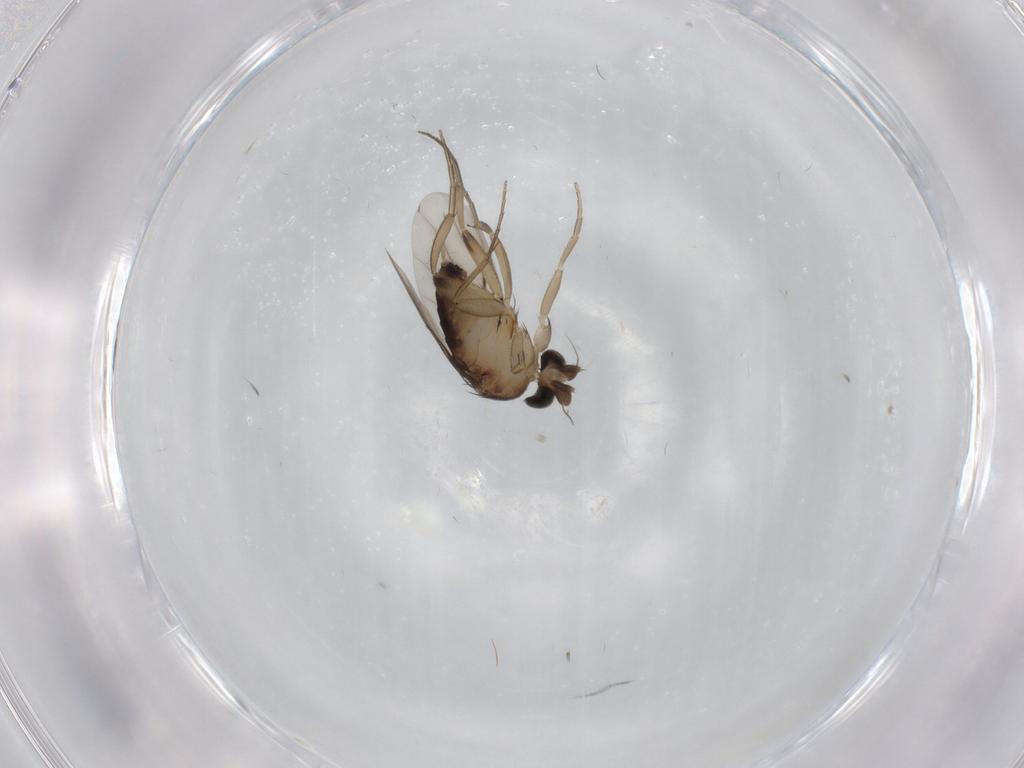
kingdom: Animalia
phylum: Arthropoda
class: Insecta
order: Diptera
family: Phoridae
